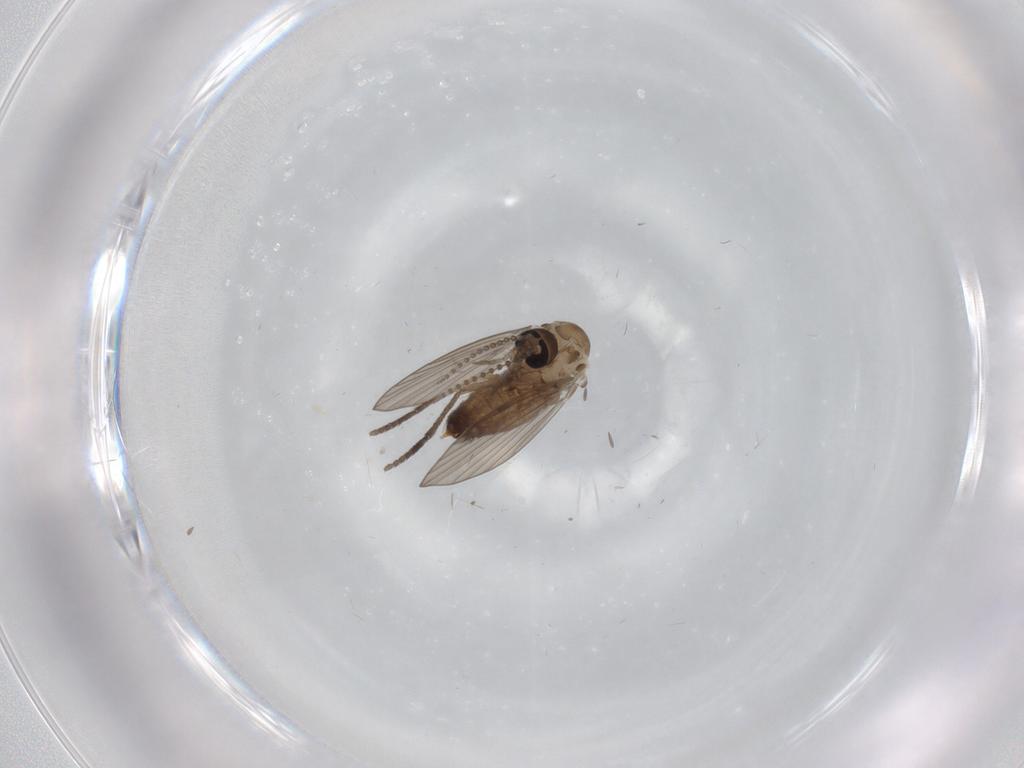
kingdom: Animalia
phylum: Arthropoda
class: Insecta
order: Diptera
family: Psychodidae
